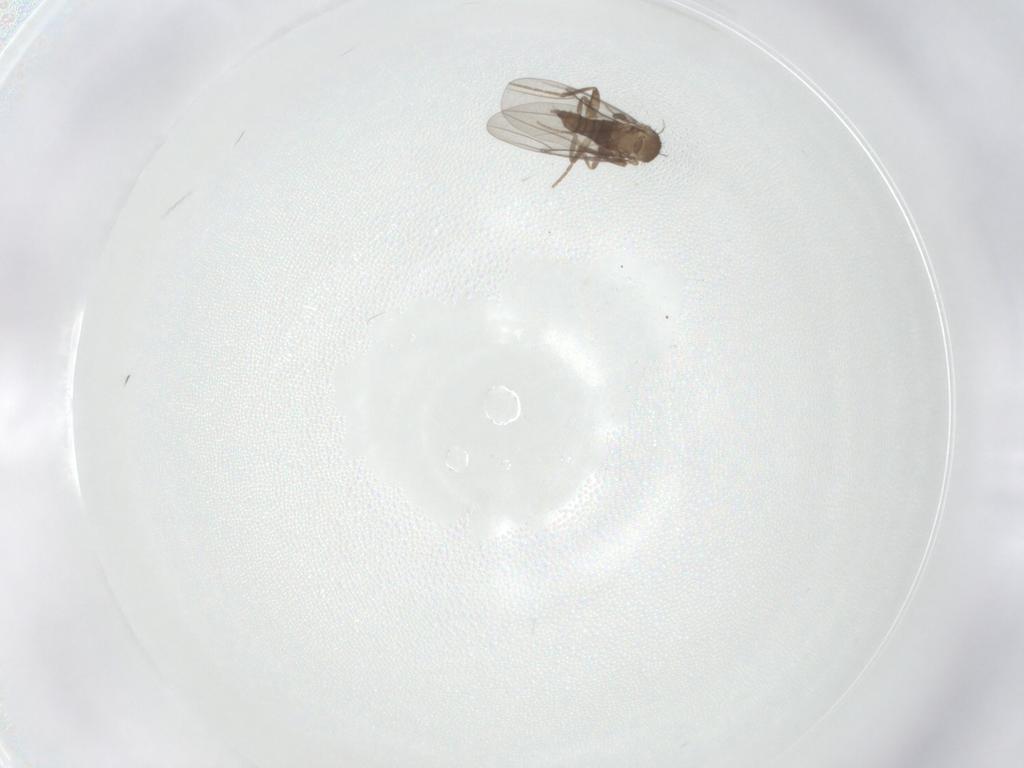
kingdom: Animalia
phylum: Arthropoda
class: Insecta
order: Diptera
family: Chironomidae
